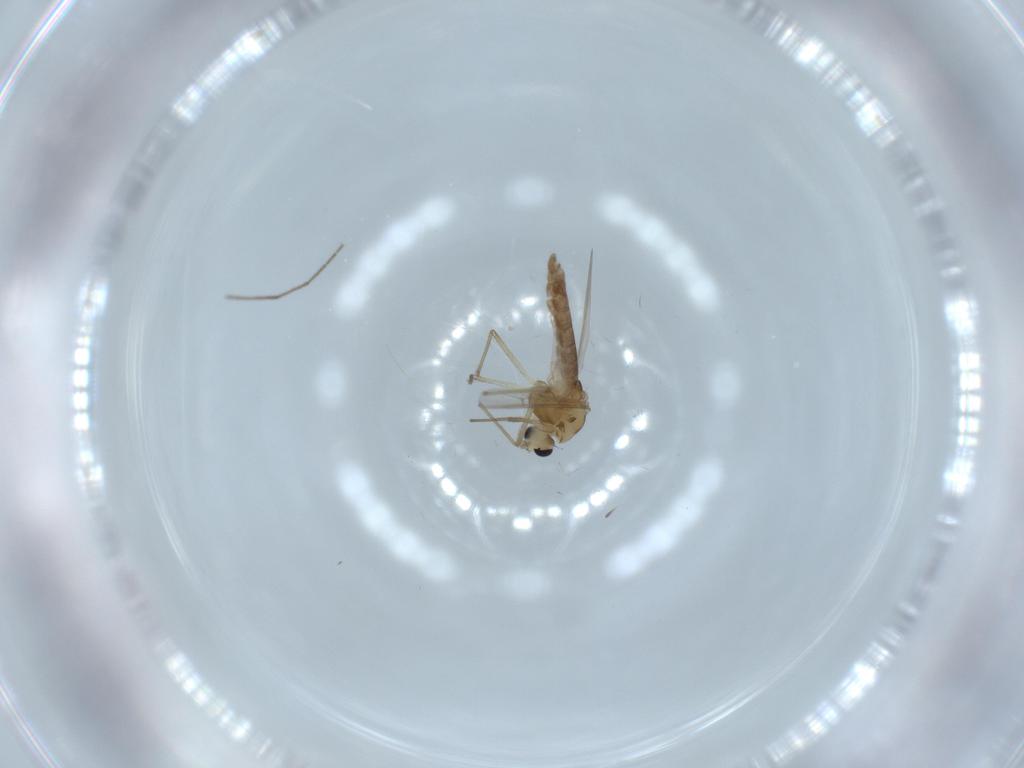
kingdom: Animalia
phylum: Arthropoda
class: Insecta
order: Diptera
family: Chironomidae
